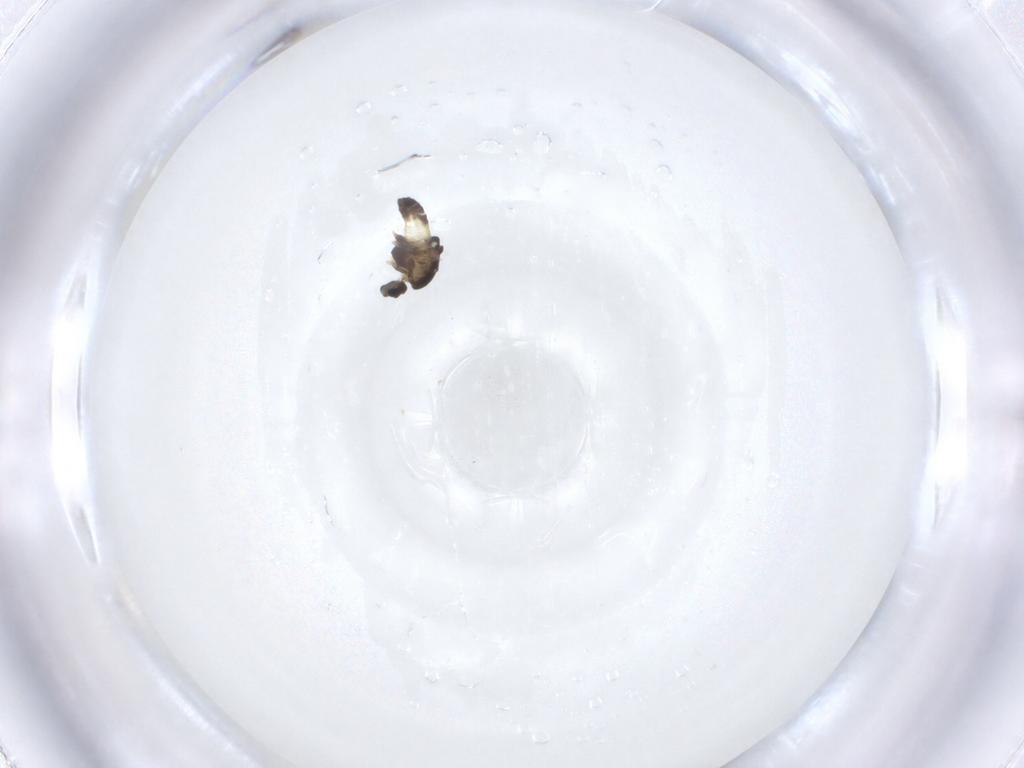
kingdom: Animalia
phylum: Arthropoda
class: Insecta
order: Diptera
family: Chironomidae
